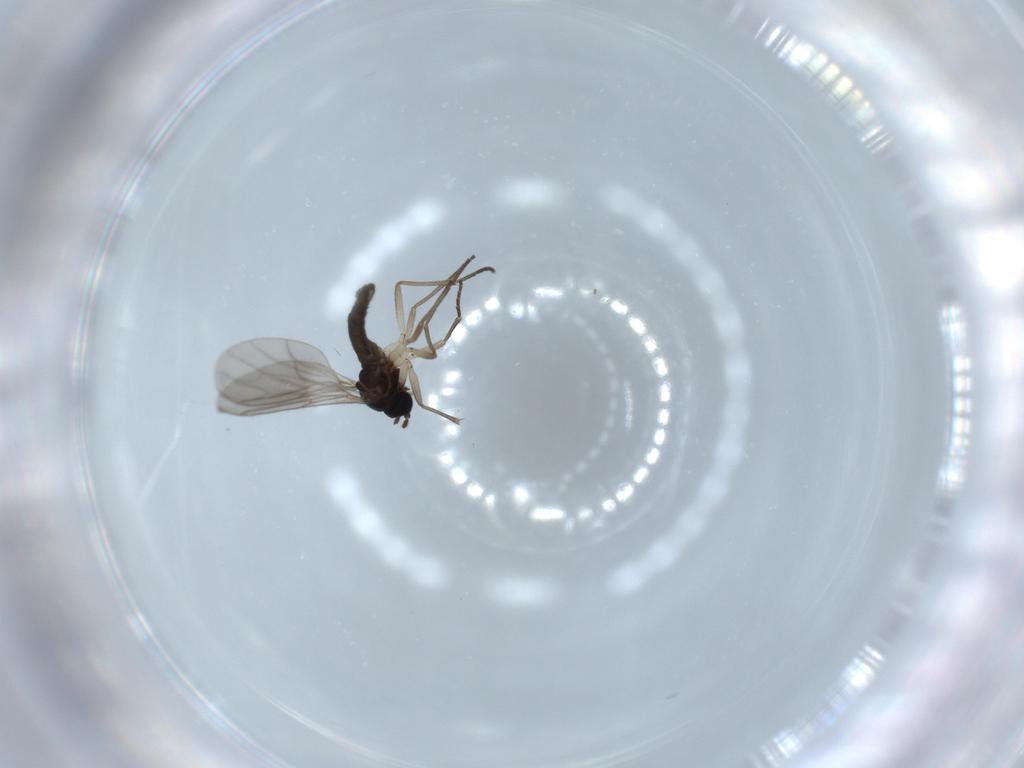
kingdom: Animalia
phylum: Arthropoda
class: Insecta
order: Diptera
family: Sciaridae
